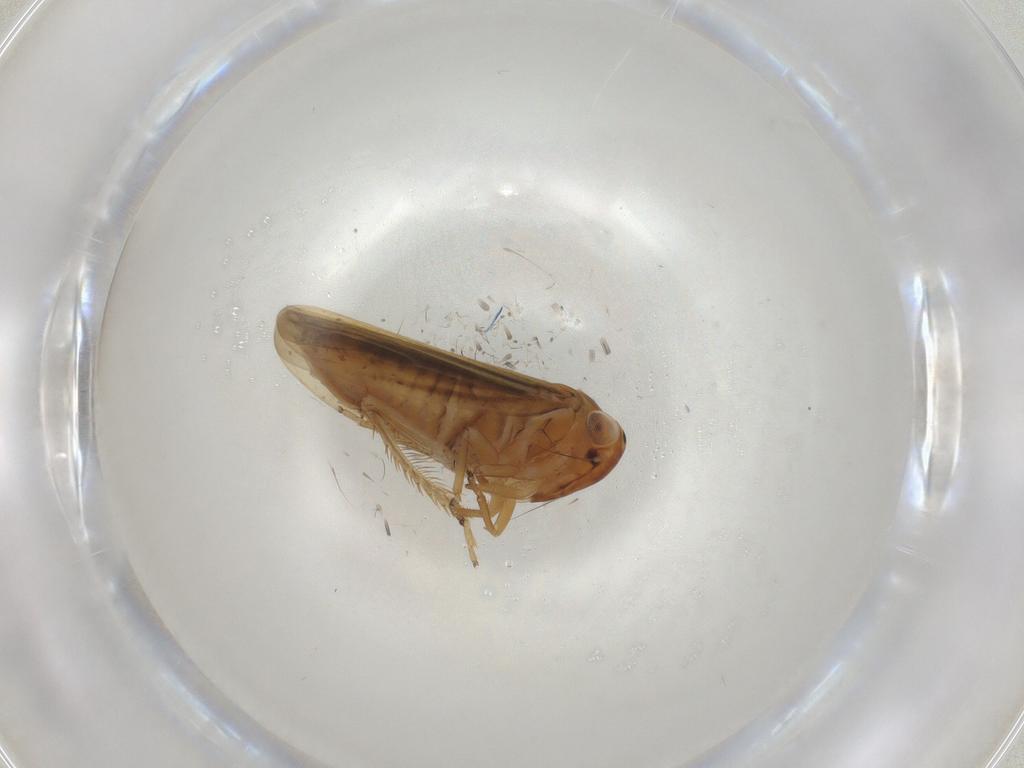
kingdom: Animalia
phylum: Arthropoda
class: Insecta
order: Hemiptera
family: Cicadellidae
